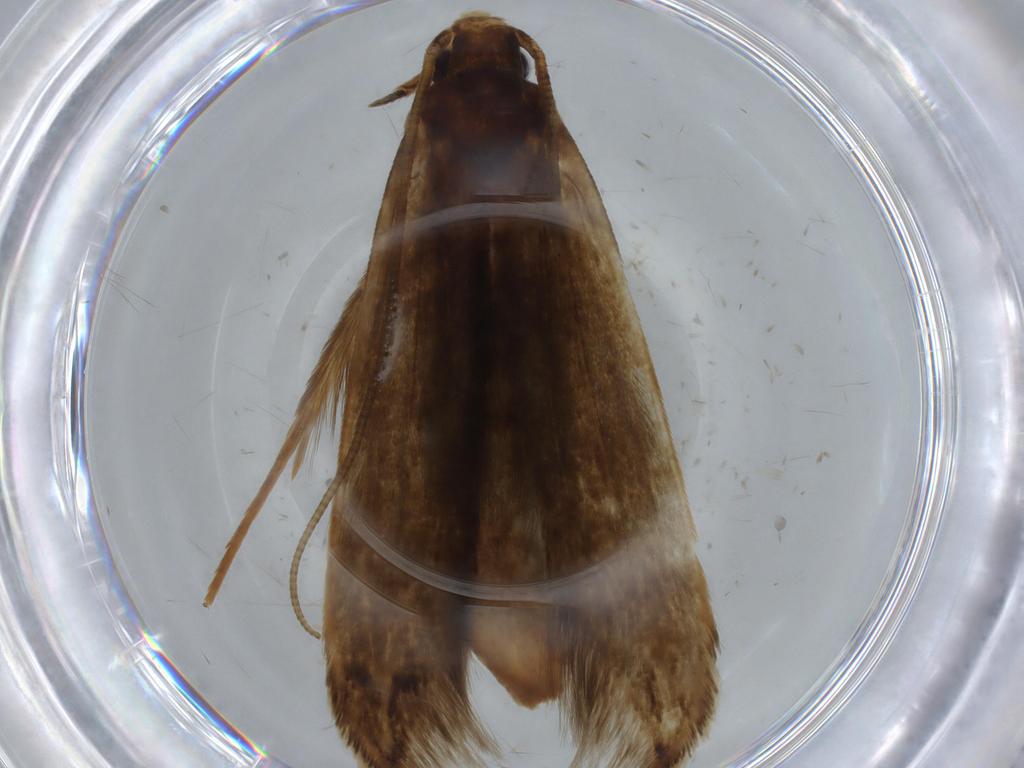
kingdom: Animalia
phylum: Arthropoda
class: Insecta
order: Lepidoptera
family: Tineidae
